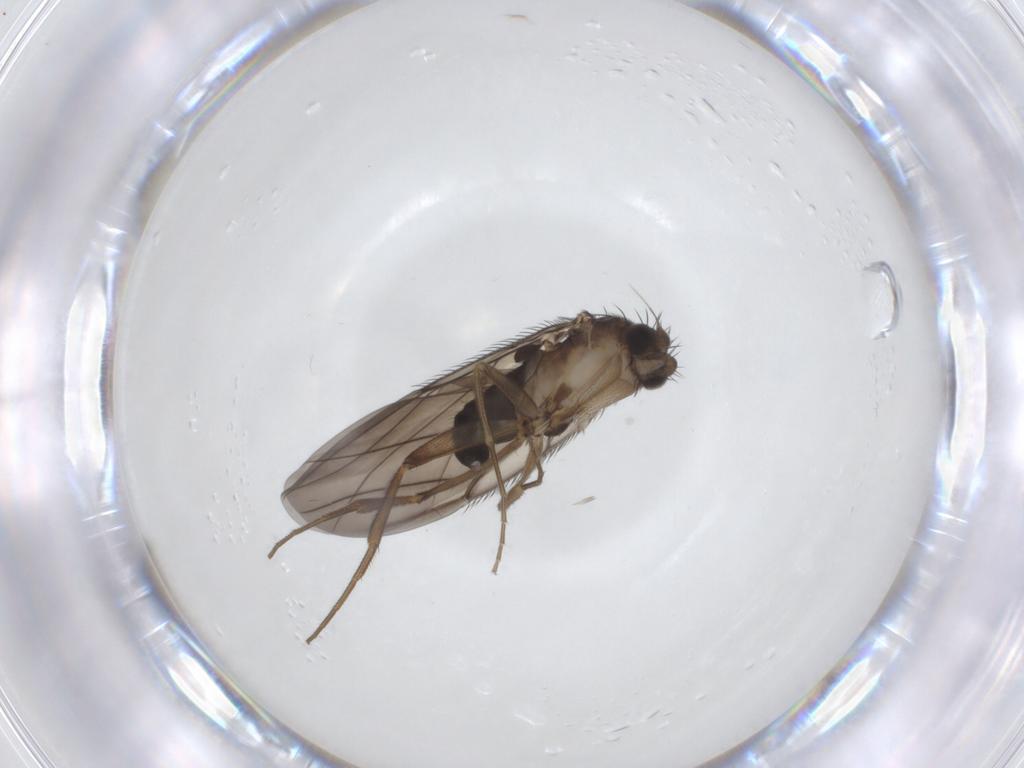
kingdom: Animalia
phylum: Arthropoda
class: Insecta
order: Diptera
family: Phoridae
